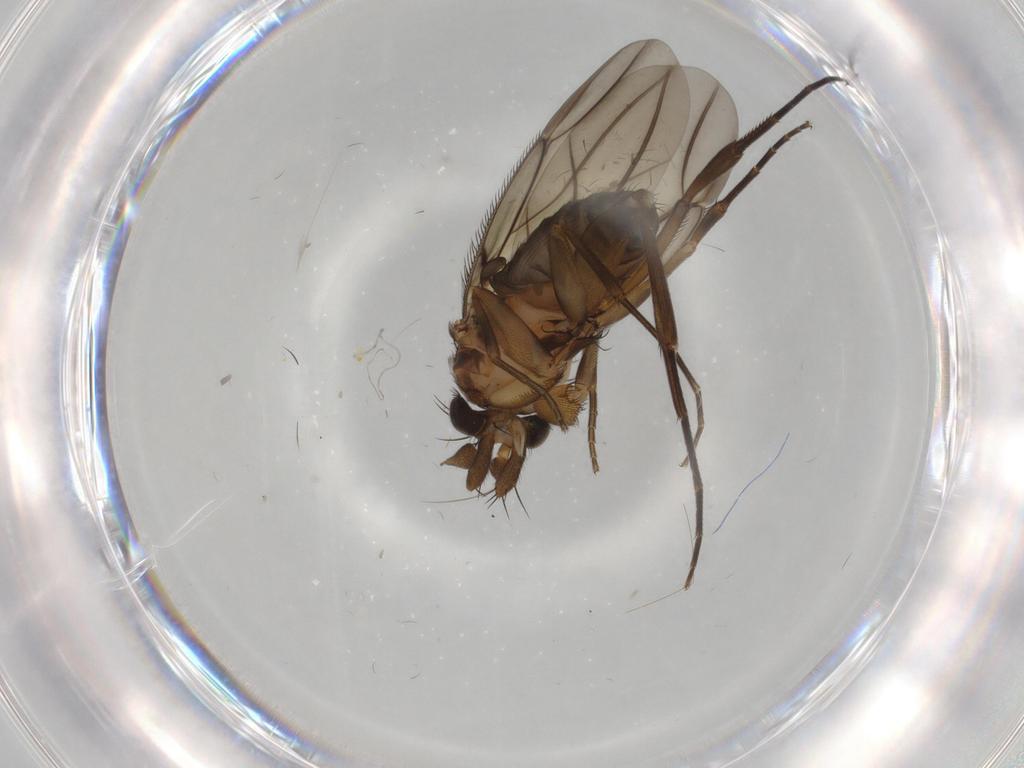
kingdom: Animalia
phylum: Arthropoda
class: Insecta
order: Diptera
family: Phoridae
